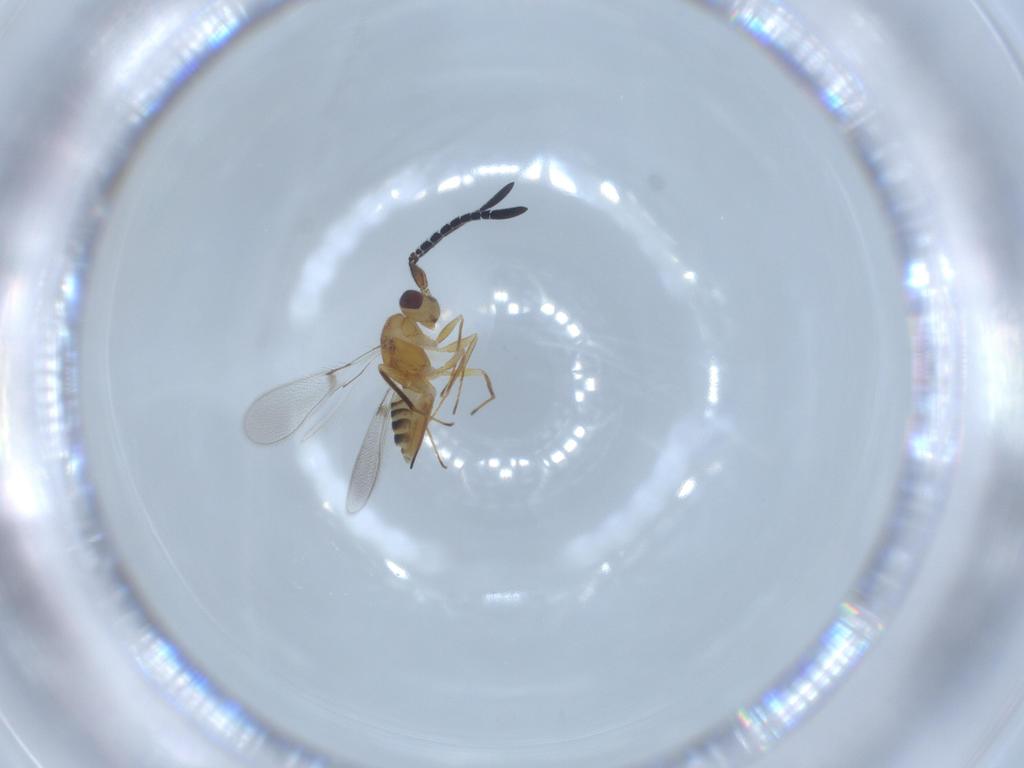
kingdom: Animalia
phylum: Arthropoda
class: Insecta
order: Hymenoptera
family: Mymaridae
